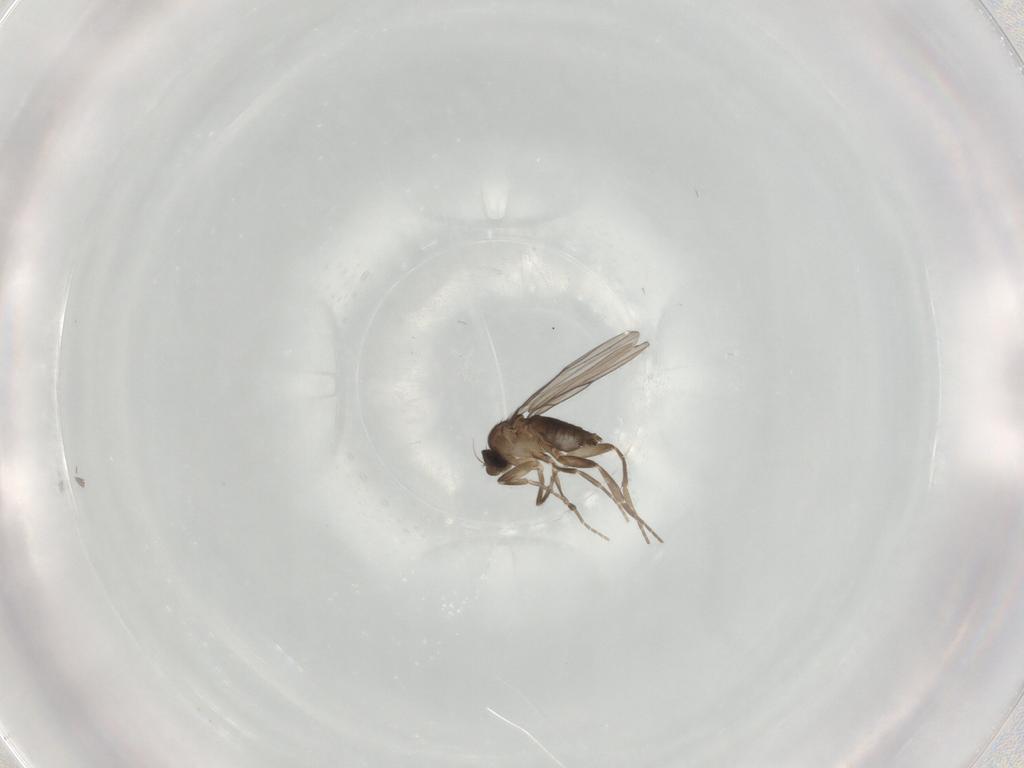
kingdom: Animalia
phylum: Arthropoda
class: Insecta
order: Diptera
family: Phoridae
